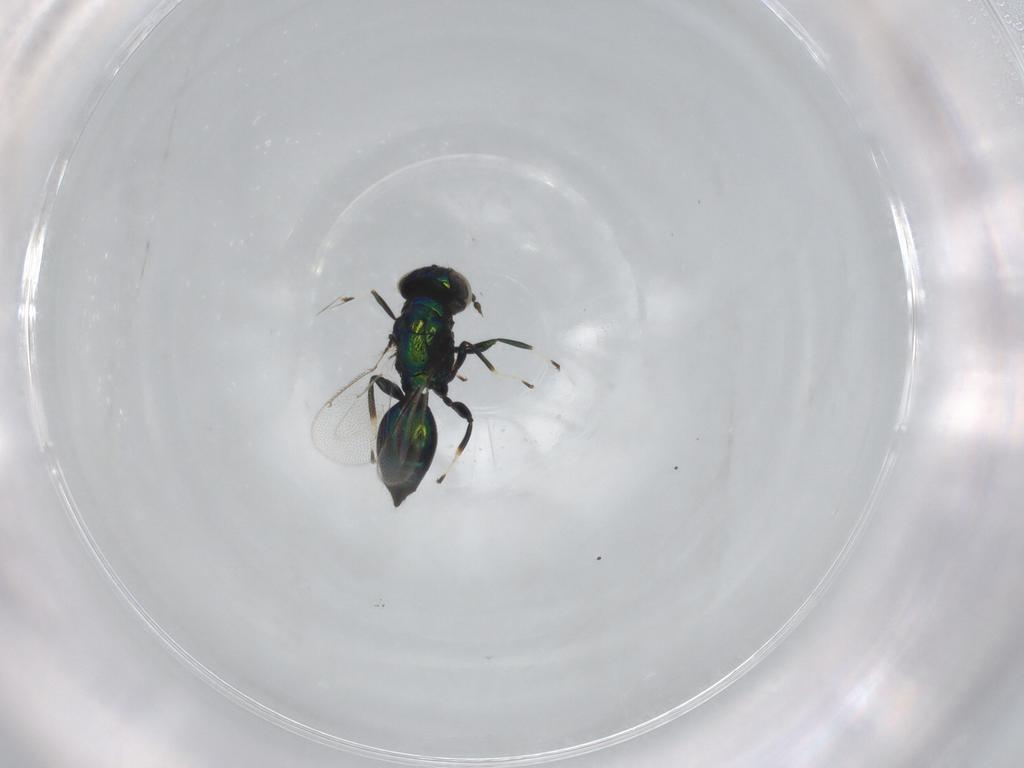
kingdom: Animalia
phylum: Arthropoda
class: Insecta
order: Hymenoptera
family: Eulophidae
